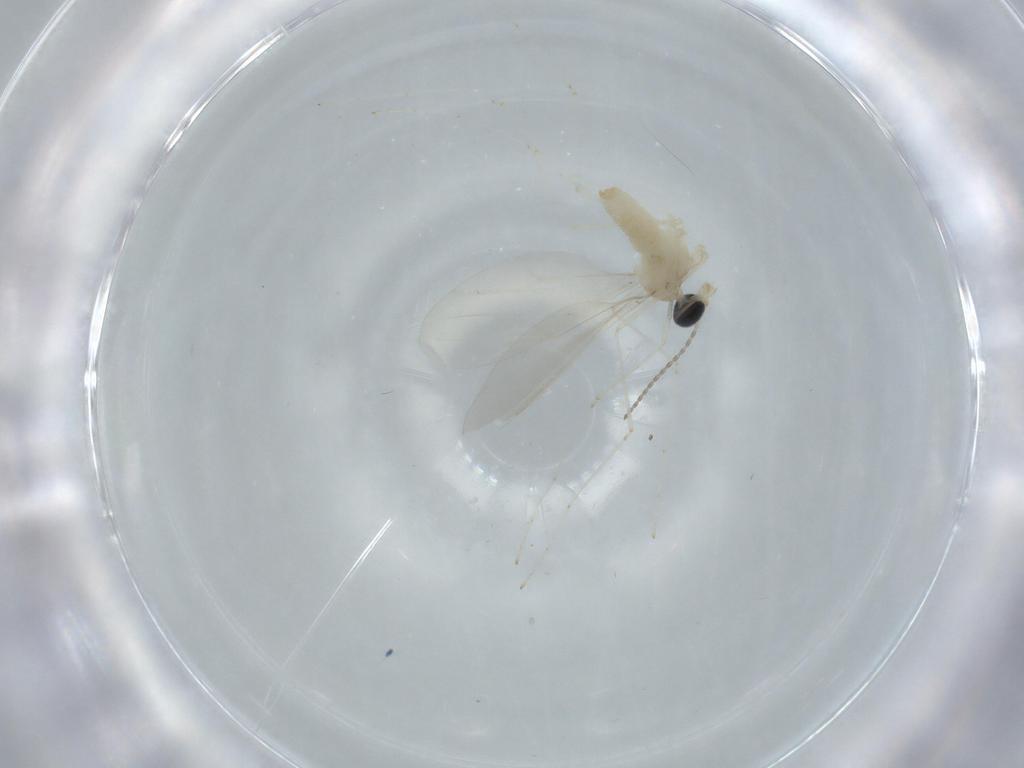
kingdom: Animalia
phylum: Arthropoda
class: Insecta
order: Diptera
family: Cecidomyiidae
